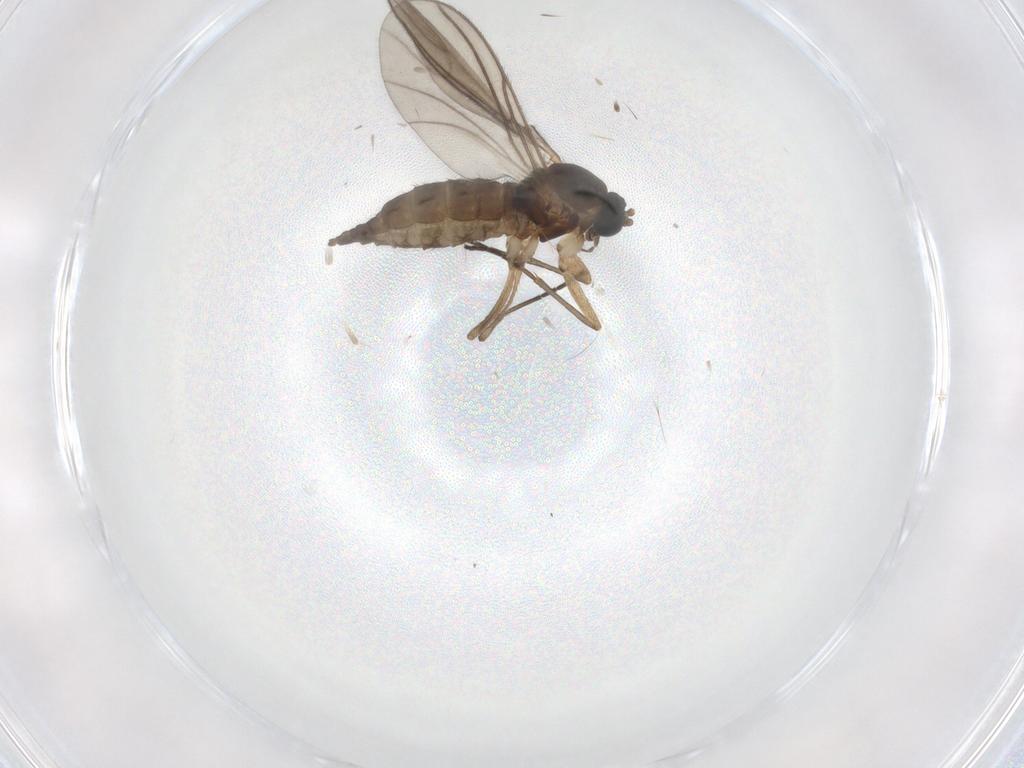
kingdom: Animalia
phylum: Arthropoda
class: Insecta
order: Diptera
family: Sciaridae
